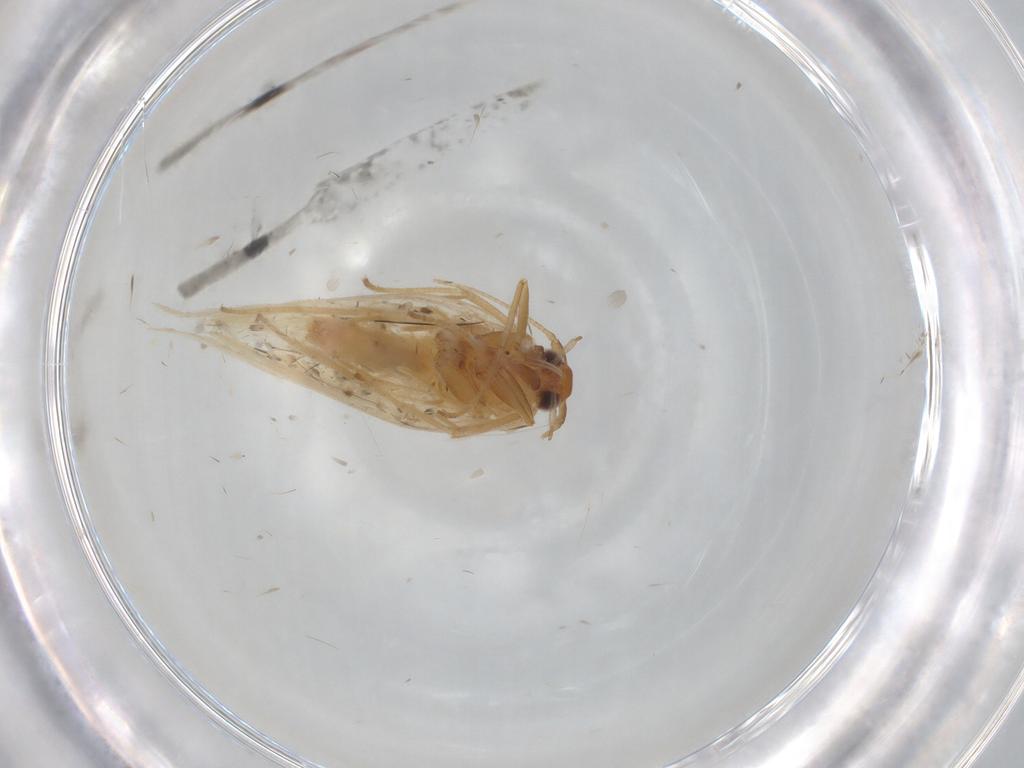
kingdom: Animalia
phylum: Arthropoda
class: Insecta
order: Lepidoptera
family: Gelechiidae
